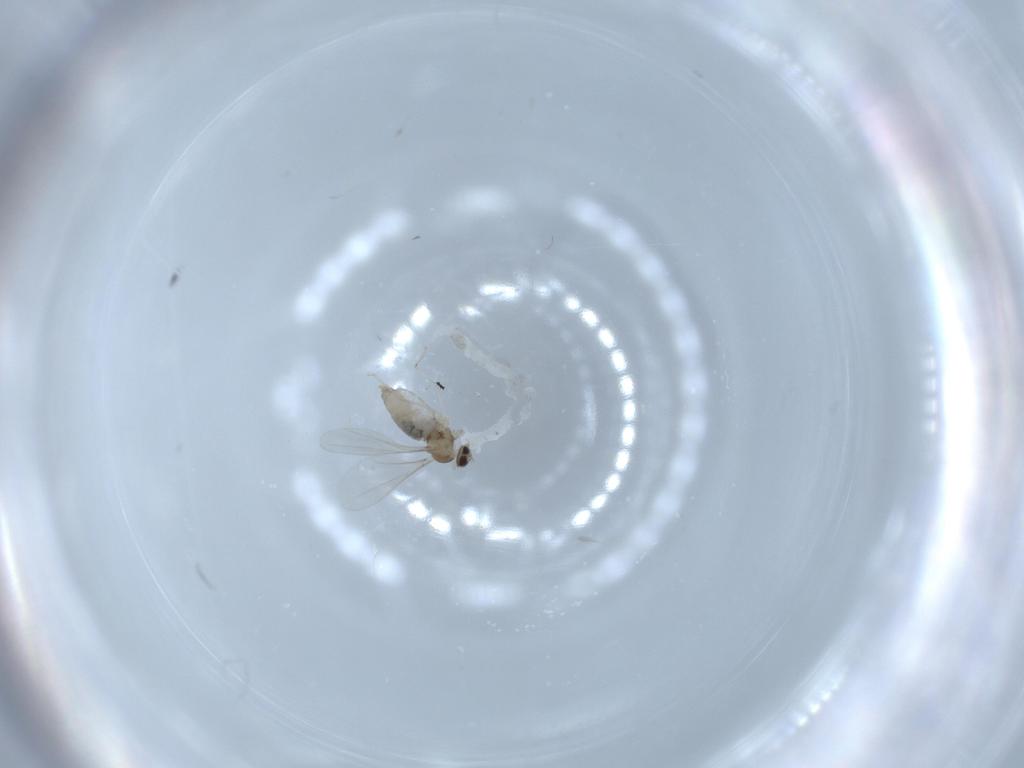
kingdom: Animalia
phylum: Arthropoda
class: Insecta
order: Diptera
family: Cecidomyiidae
